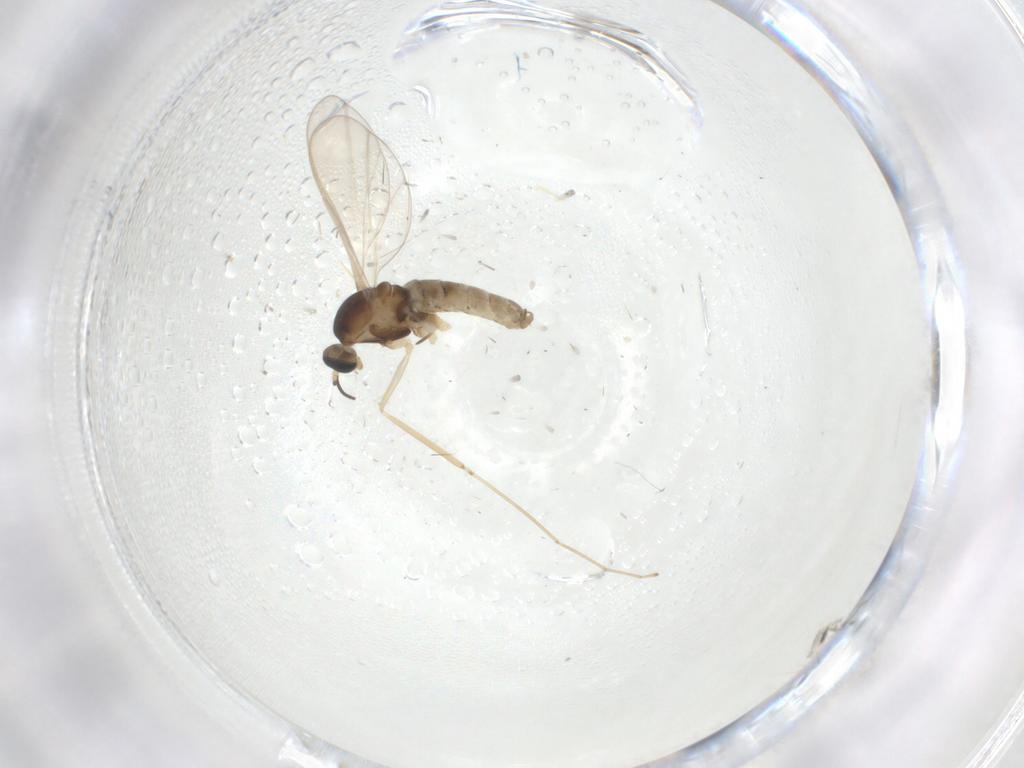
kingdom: Animalia
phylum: Arthropoda
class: Insecta
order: Diptera
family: Cecidomyiidae
